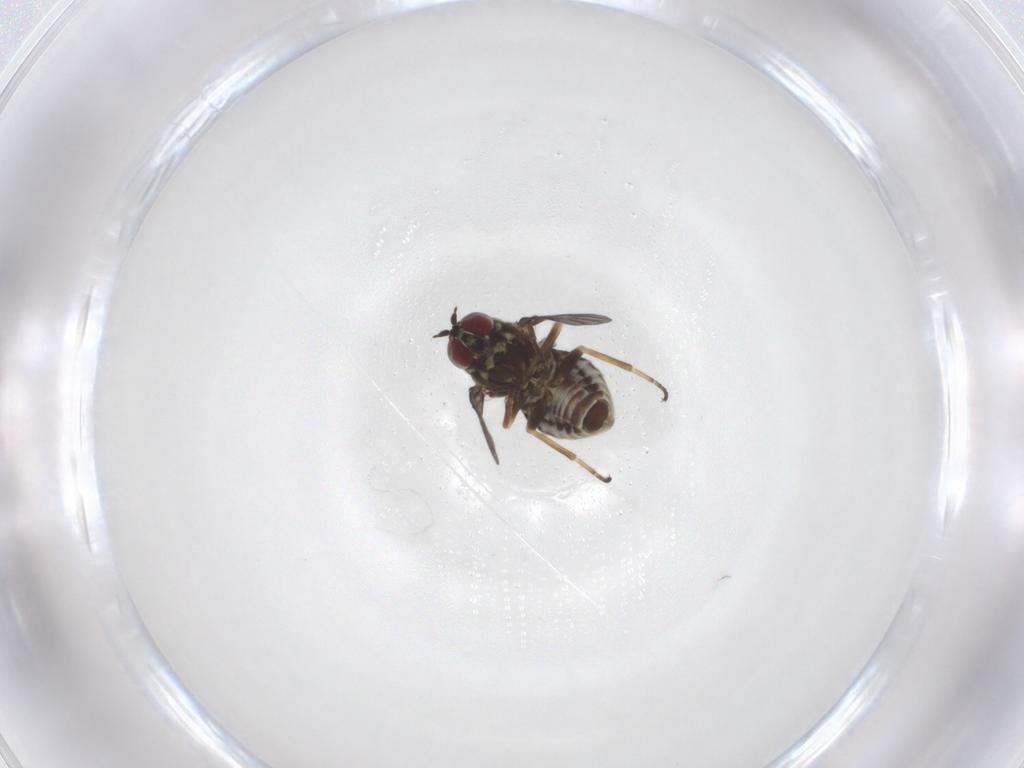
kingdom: Animalia
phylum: Arthropoda
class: Insecta
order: Diptera
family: Bombyliidae
